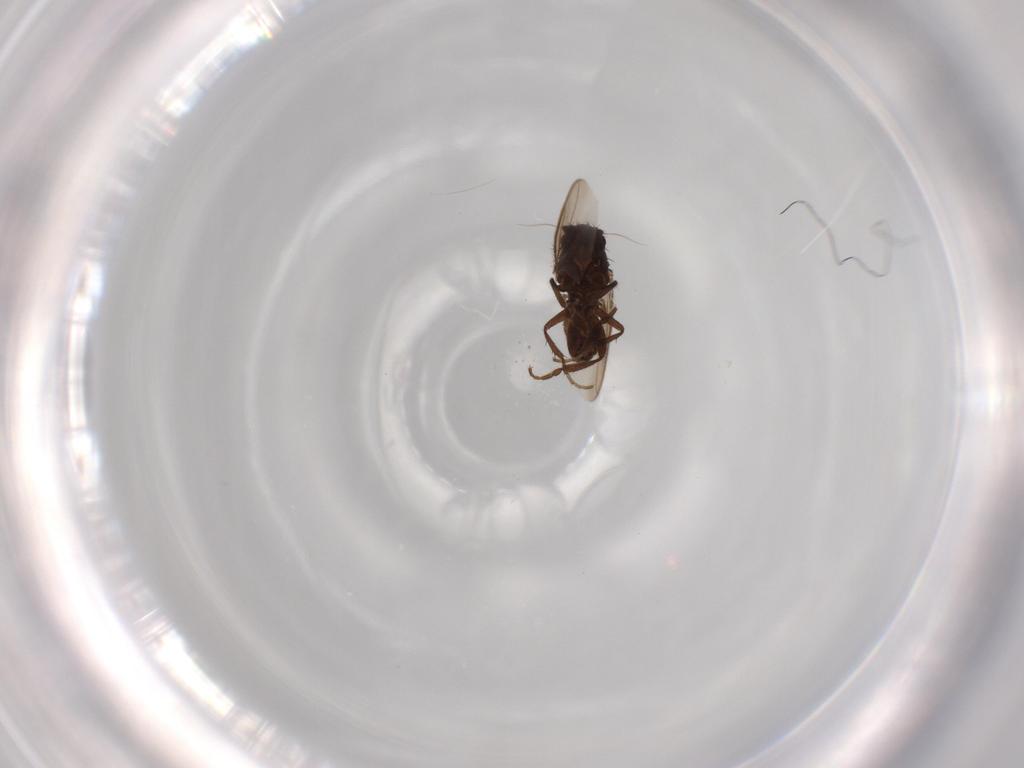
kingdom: Animalia
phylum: Arthropoda
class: Insecta
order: Diptera
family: Sphaeroceridae
